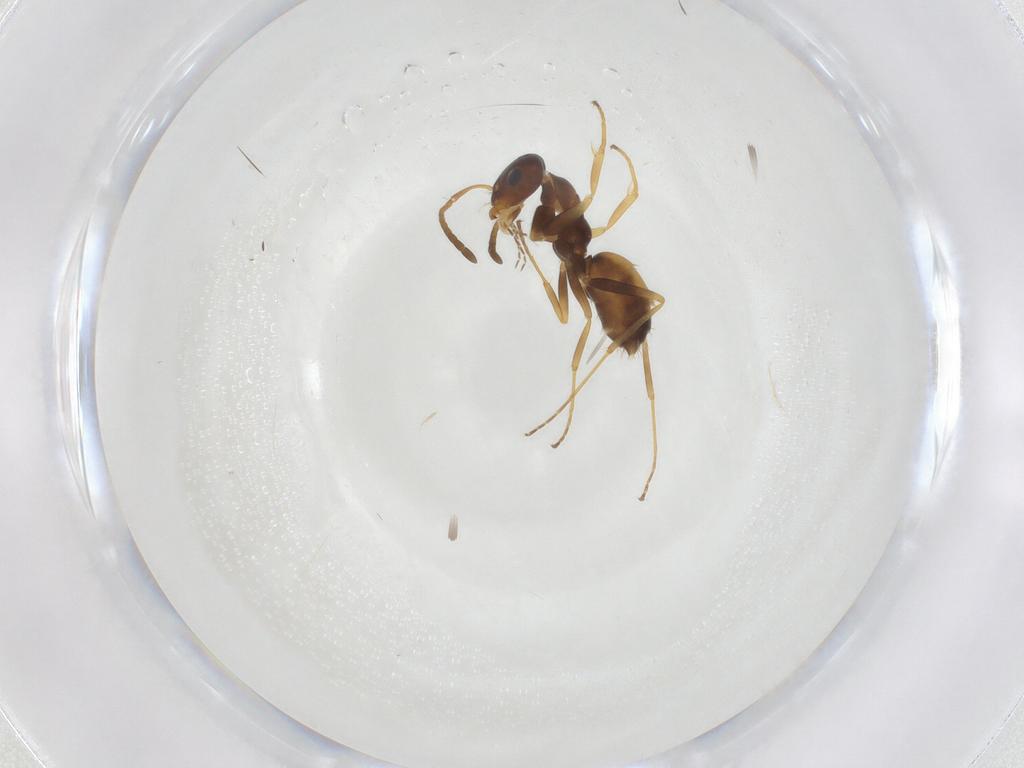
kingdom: Animalia
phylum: Arthropoda
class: Insecta
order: Hymenoptera
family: Formicidae
